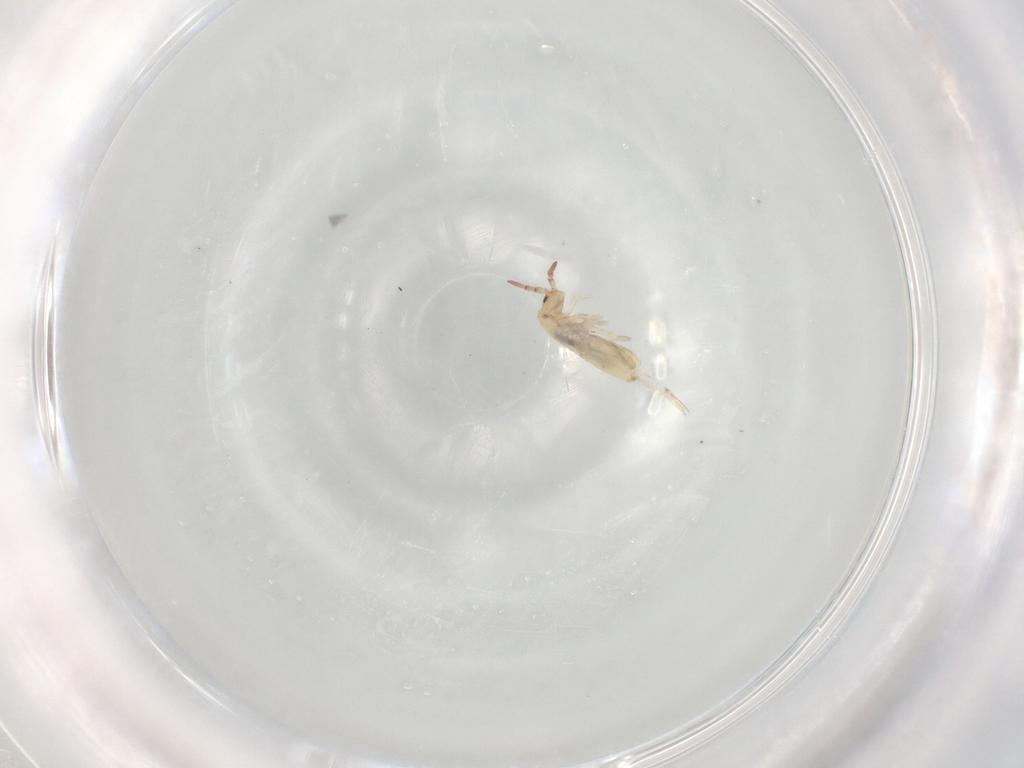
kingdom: Animalia
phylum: Arthropoda
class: Collembola
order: Entomobryomorpha
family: Entomobryidae
